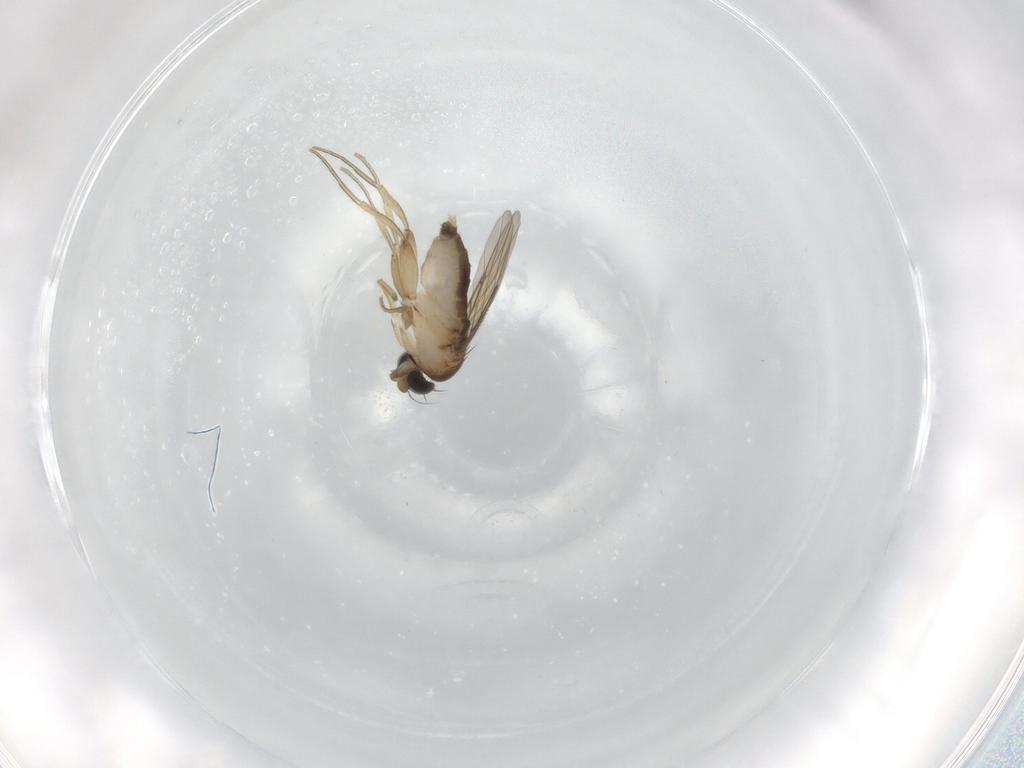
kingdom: Animalia
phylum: Arthropoda
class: Insecta
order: Diptera
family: Phoridae
